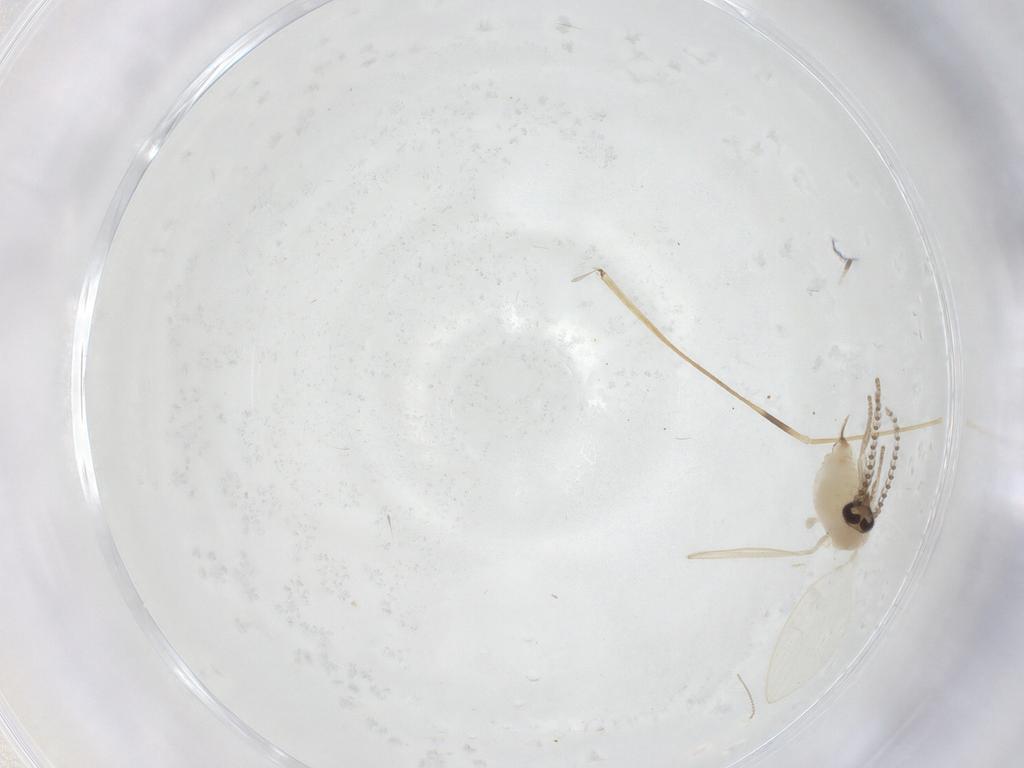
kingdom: Animalia
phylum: Arthropoda
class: Insecta
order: Diptera
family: Psychodidae
